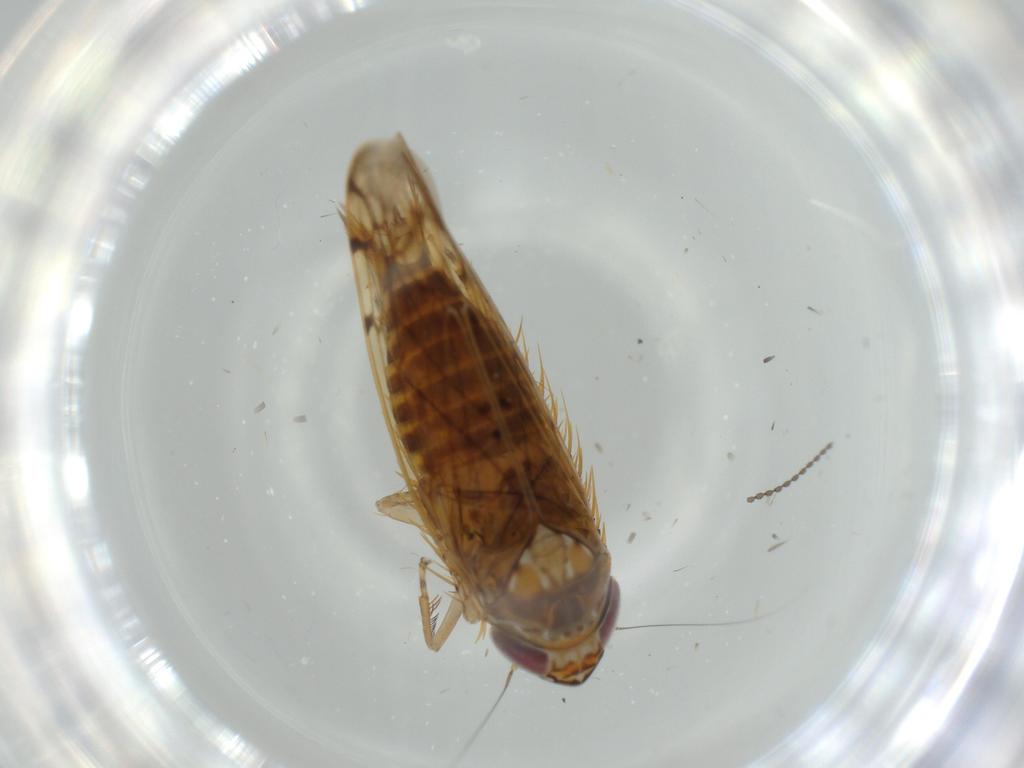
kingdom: Animalia
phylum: Arthropoda
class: Insecta
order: Hemiptera
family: Cicadellidae
